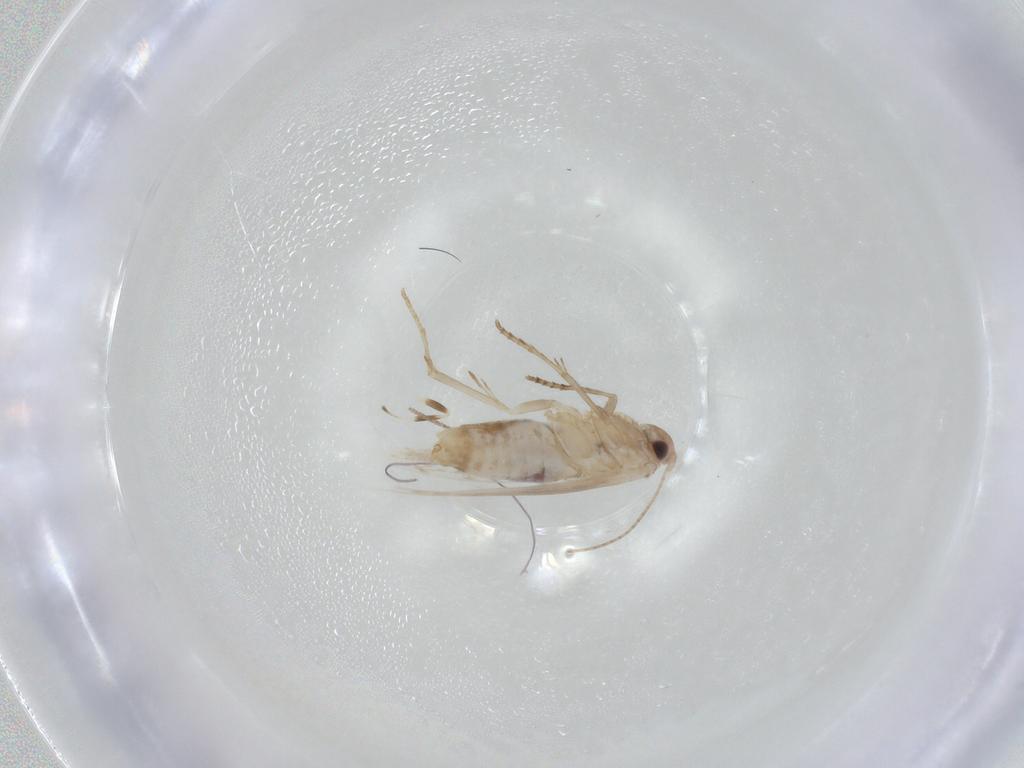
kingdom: Animalia
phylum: Arthropoda
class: Insecta
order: Lepidoptera
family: Bucculatricidae
